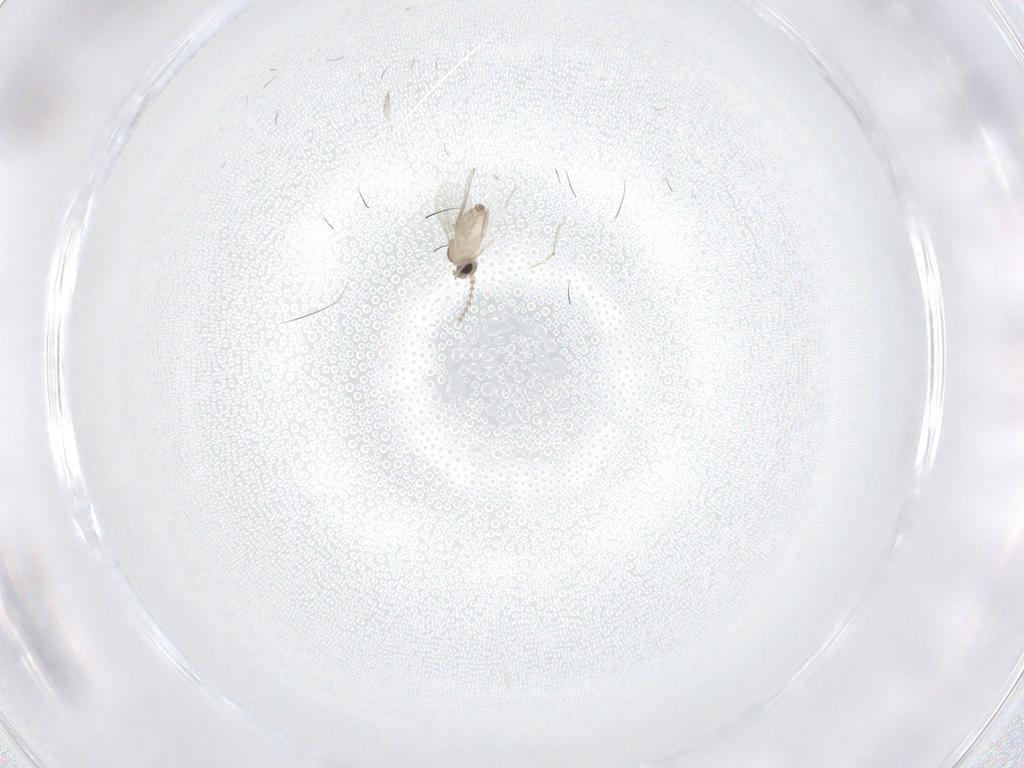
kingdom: Animalia
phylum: Arthropoda
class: Insecta
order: Diptera
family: Cecidomyiidae
